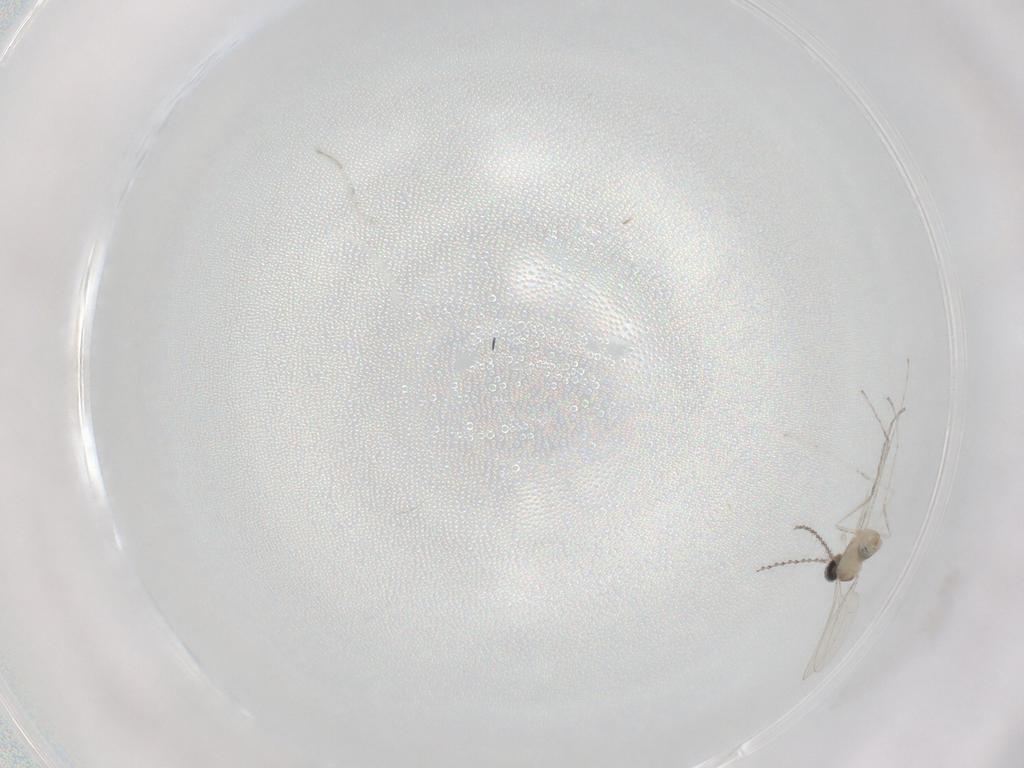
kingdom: Animalia
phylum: Arthropoda
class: Insecta
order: Diptera
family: Cecidomyiidae
